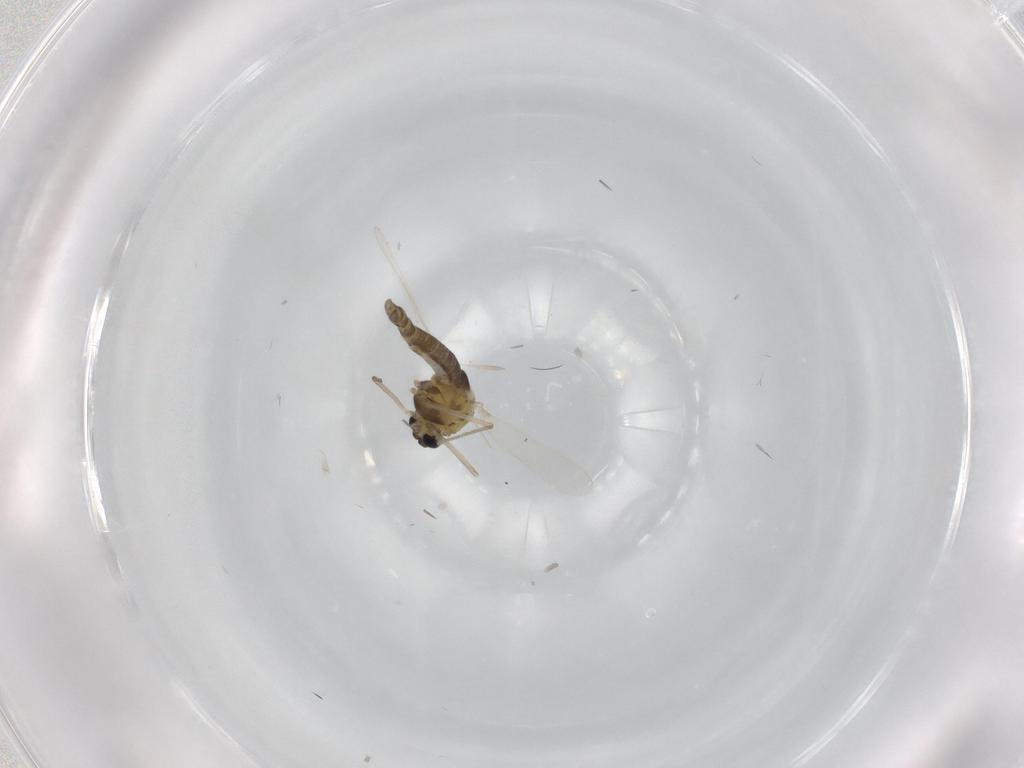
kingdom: Animalia
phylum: Arthropoda
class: Insecta
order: Diptera
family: Chironomidae
